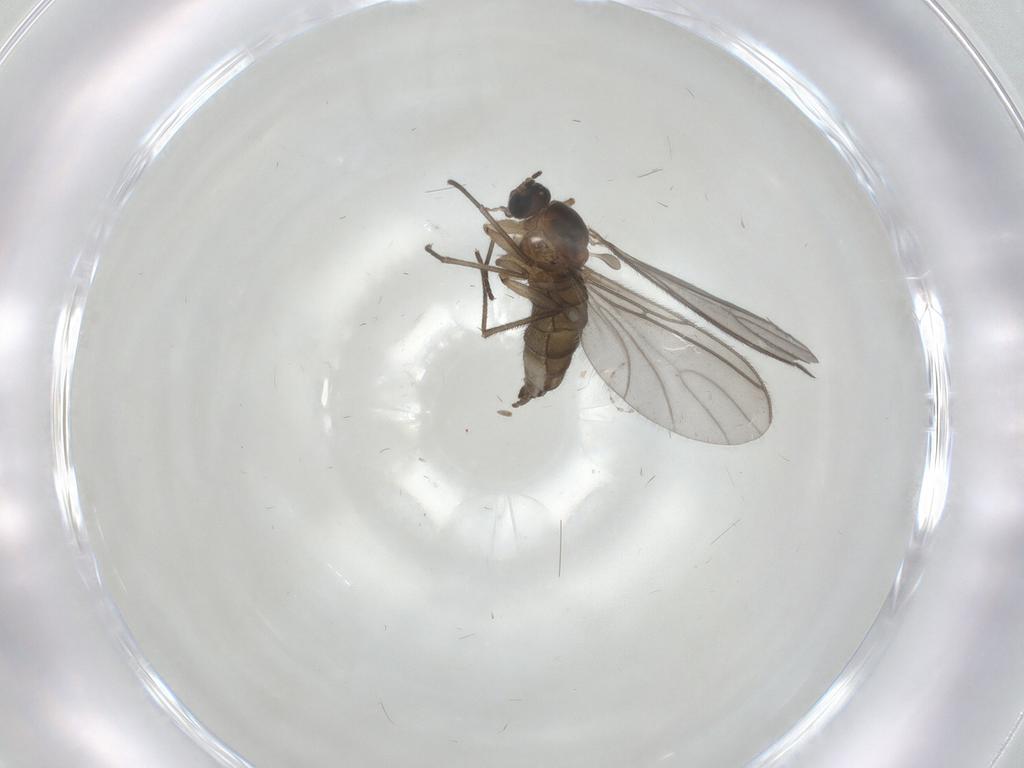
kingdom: Animalia
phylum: Arthropoda
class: Insecta
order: Diptera
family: Cecidomyiidae
